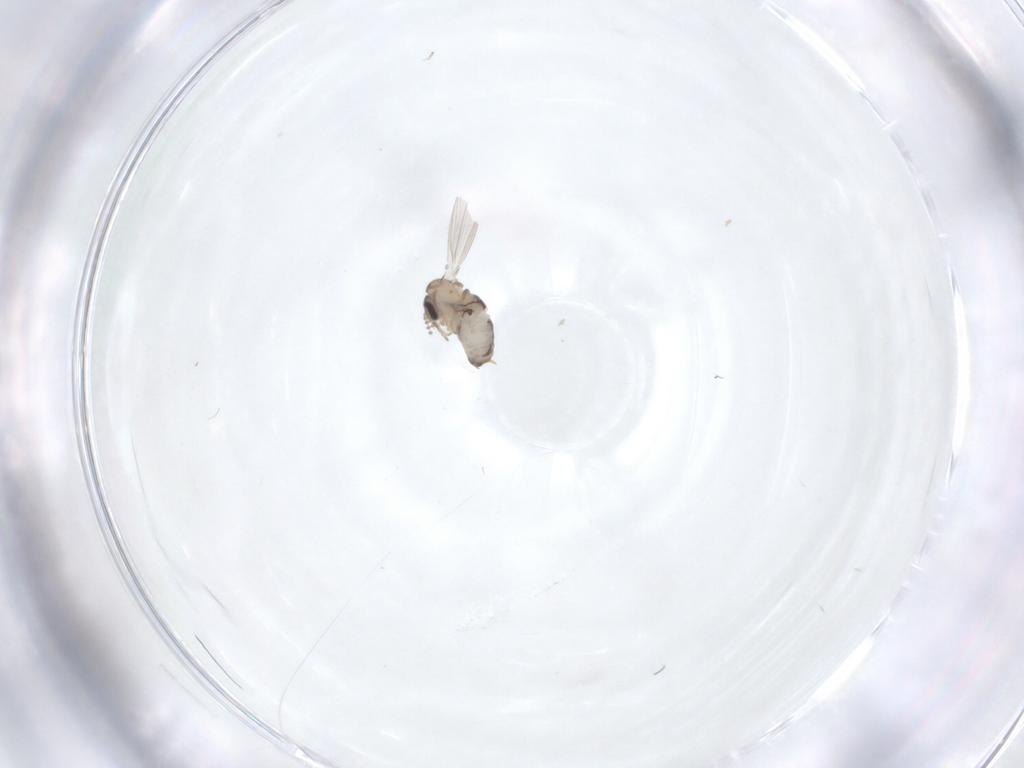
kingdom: Animalia
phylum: Arthropoda
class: Insecta
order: Diptera
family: Psychodidae
